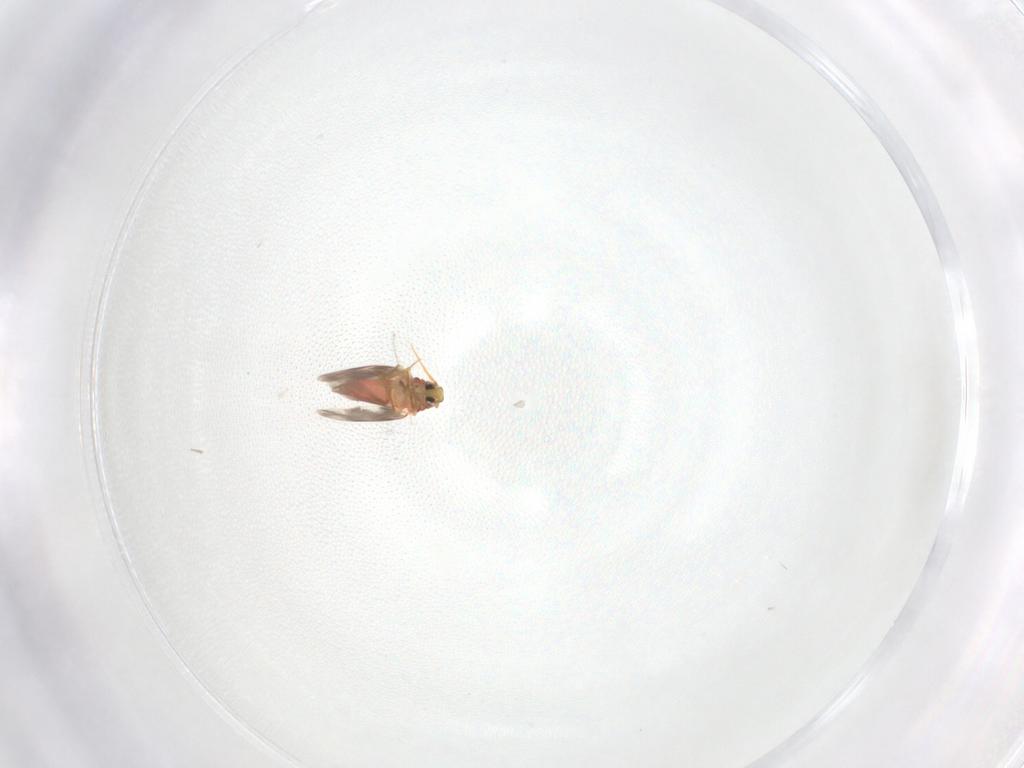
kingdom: Animalia
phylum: Arthropoda
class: Insecta
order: Hemiptera
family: Aleyrodidae
